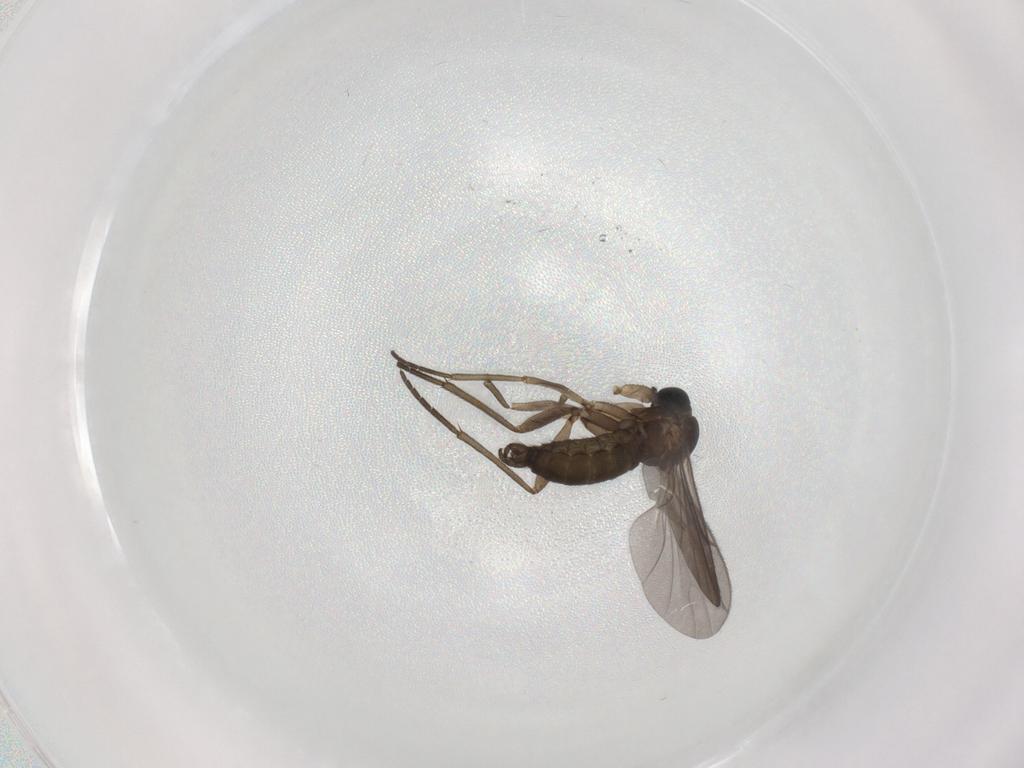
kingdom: Animalia
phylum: Arthropoda
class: Insecta
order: Diptera
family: Sciaridae
